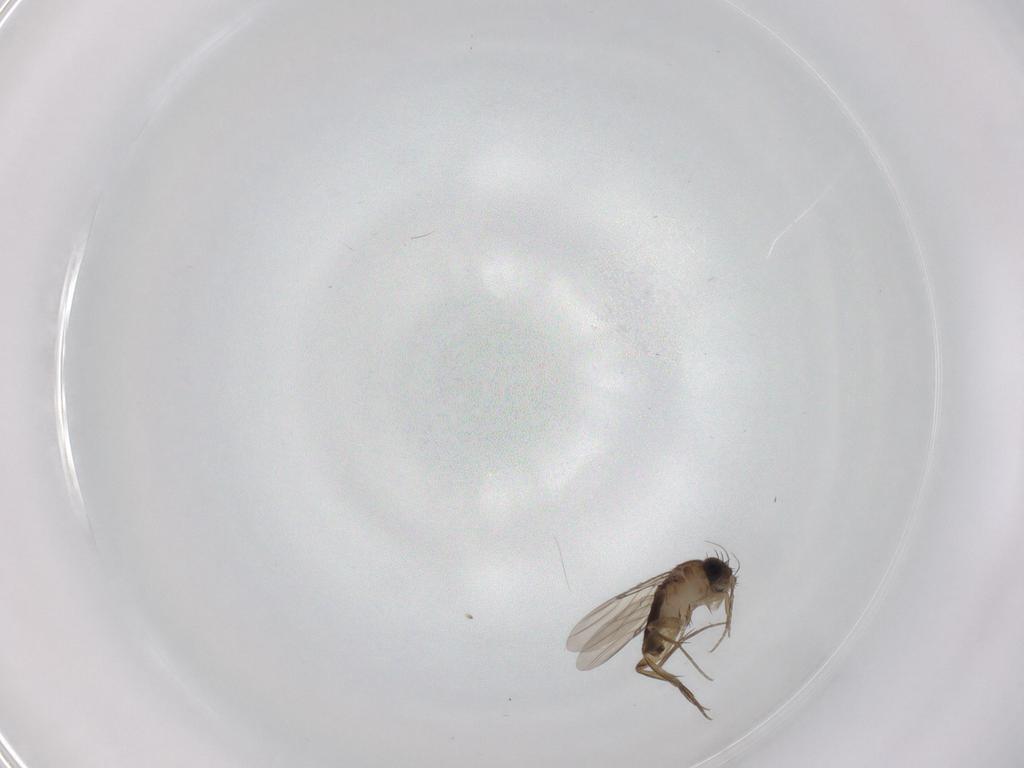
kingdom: Animalia
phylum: Arthropoda
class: Insecta
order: Diptera
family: Phoridae
